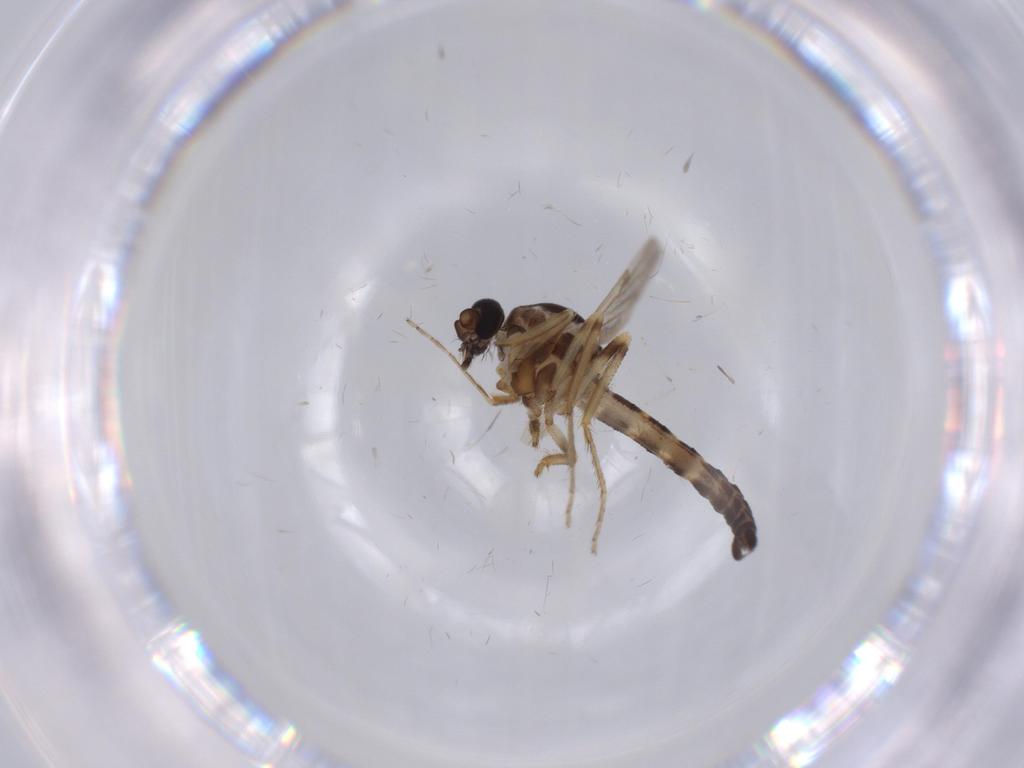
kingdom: Animalia
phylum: Arthropoda
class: Insecta
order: Diptera
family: Ceratopogonidae
